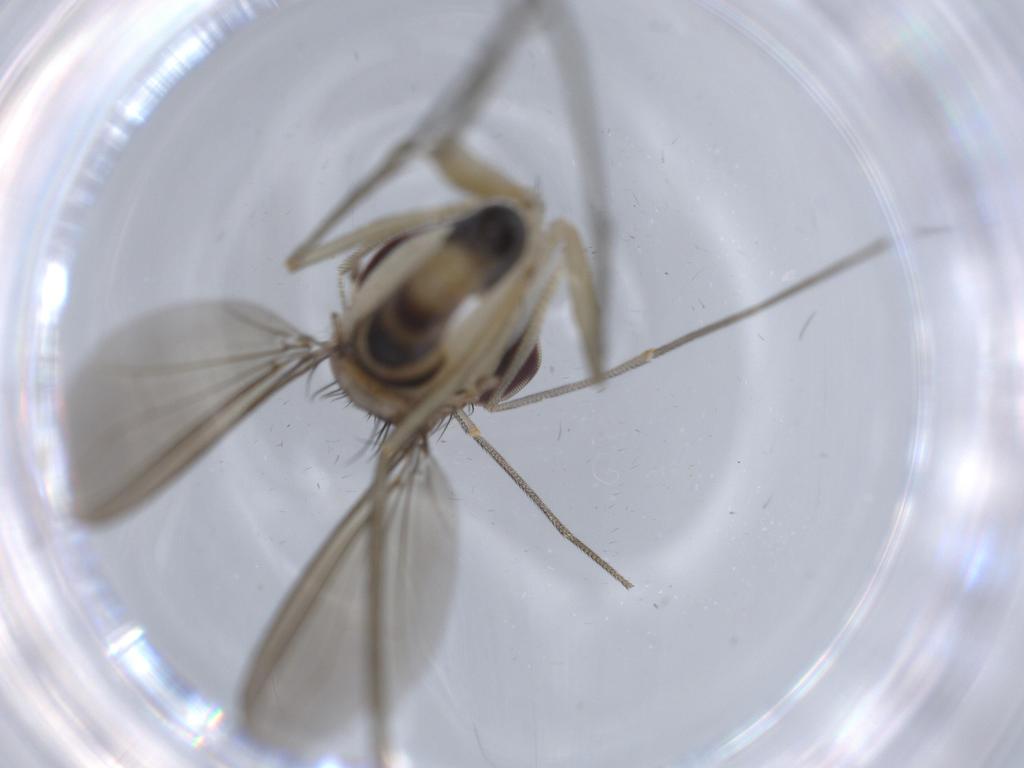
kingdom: Animalia
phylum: Arthropoda
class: Insecta
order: Diptera
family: Dolichopodidae
